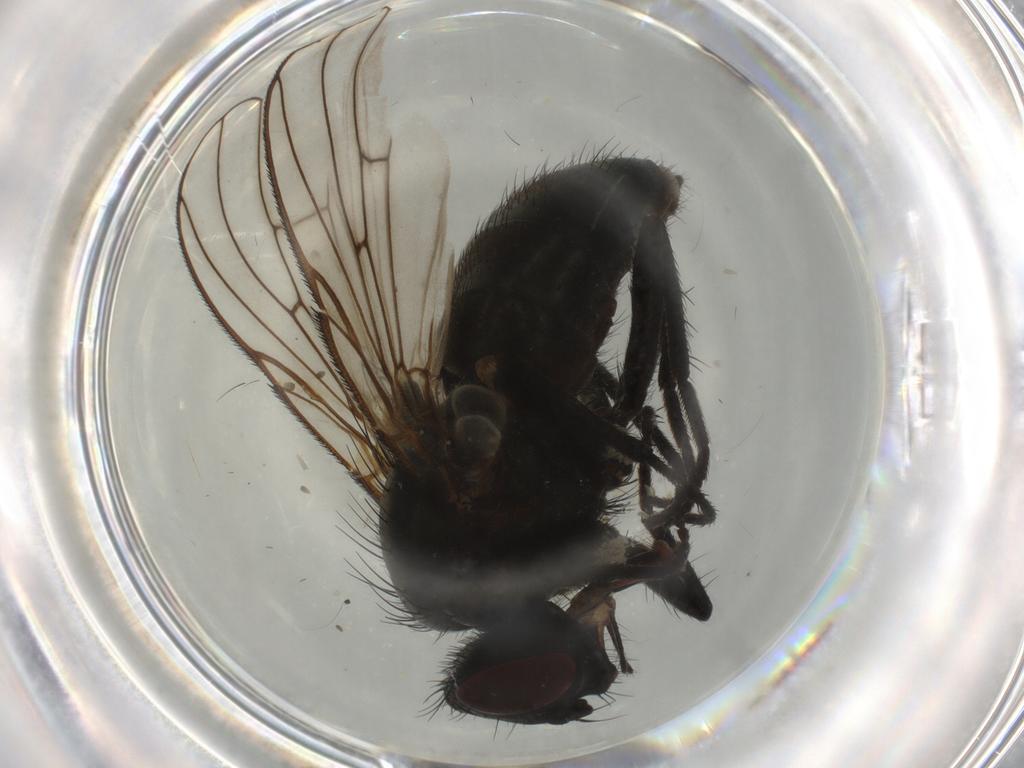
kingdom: Animalia
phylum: Arthropoda
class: Insecta
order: Diptera
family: Muscidae
